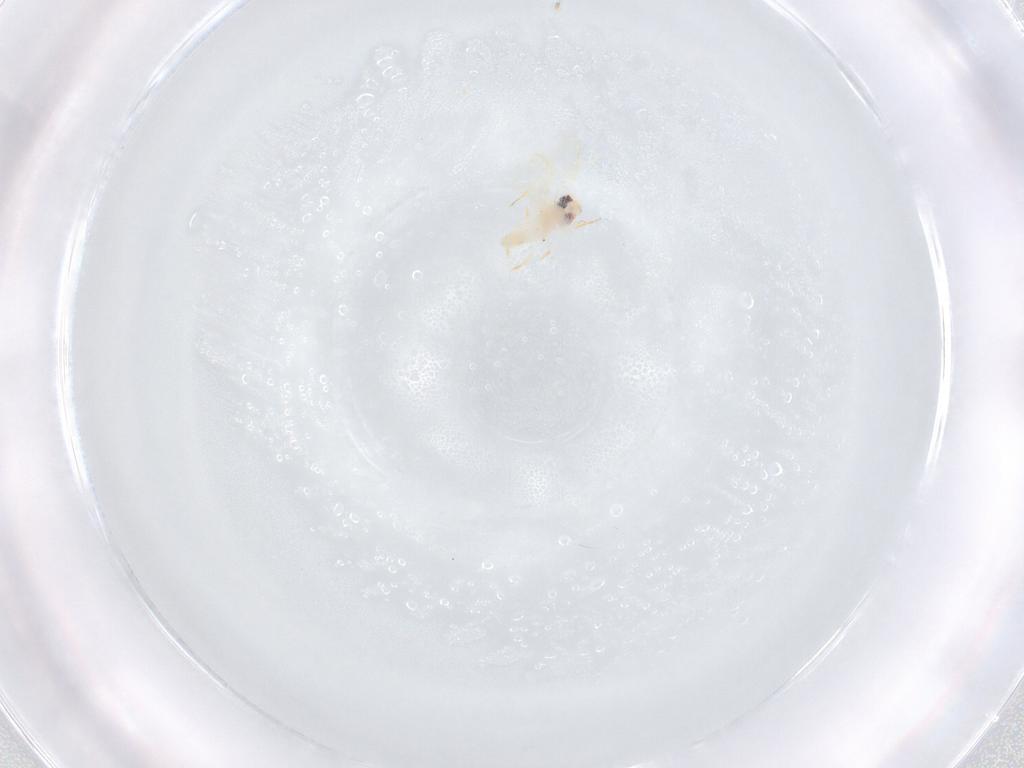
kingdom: Animalia
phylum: Arthropoda
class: Insecta
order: Hemiptera
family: Aleyrodidae
